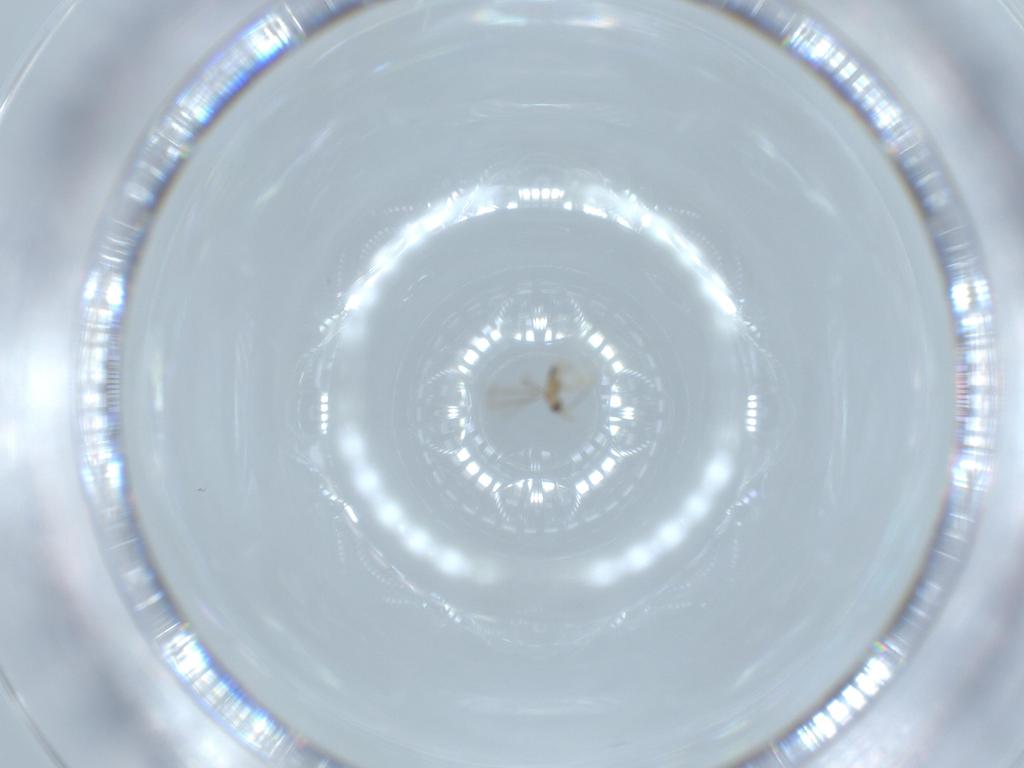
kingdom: Animalia
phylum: Arthropoda
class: Insecta
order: Hymenoptera
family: Mymaridae
